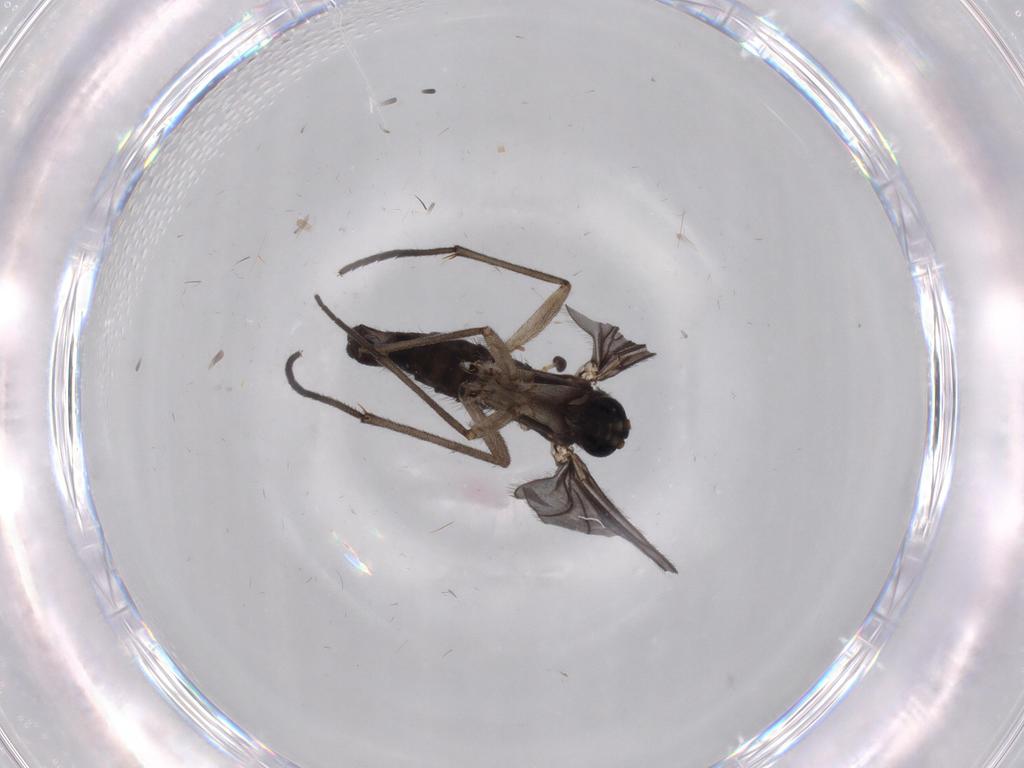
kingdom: Animalia
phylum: Arthropoda
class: Insecta
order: Diptera
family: Sciaridae
